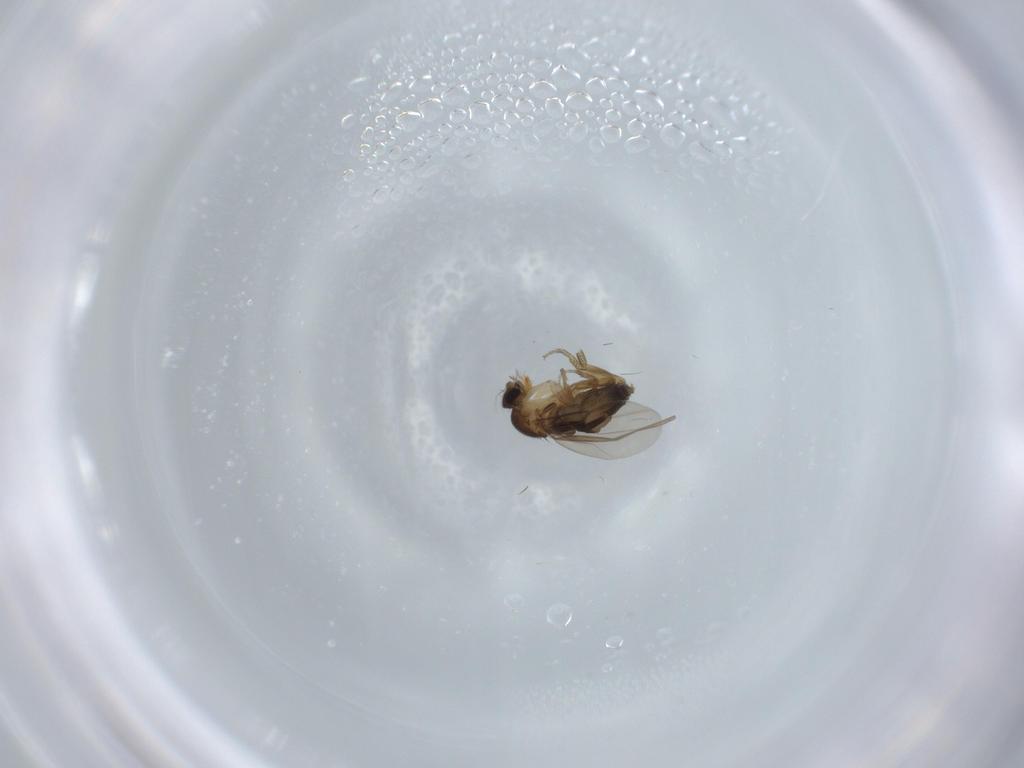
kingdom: Animalia
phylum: Arthropoda
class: Insecta
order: Diptera
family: Phoridae
